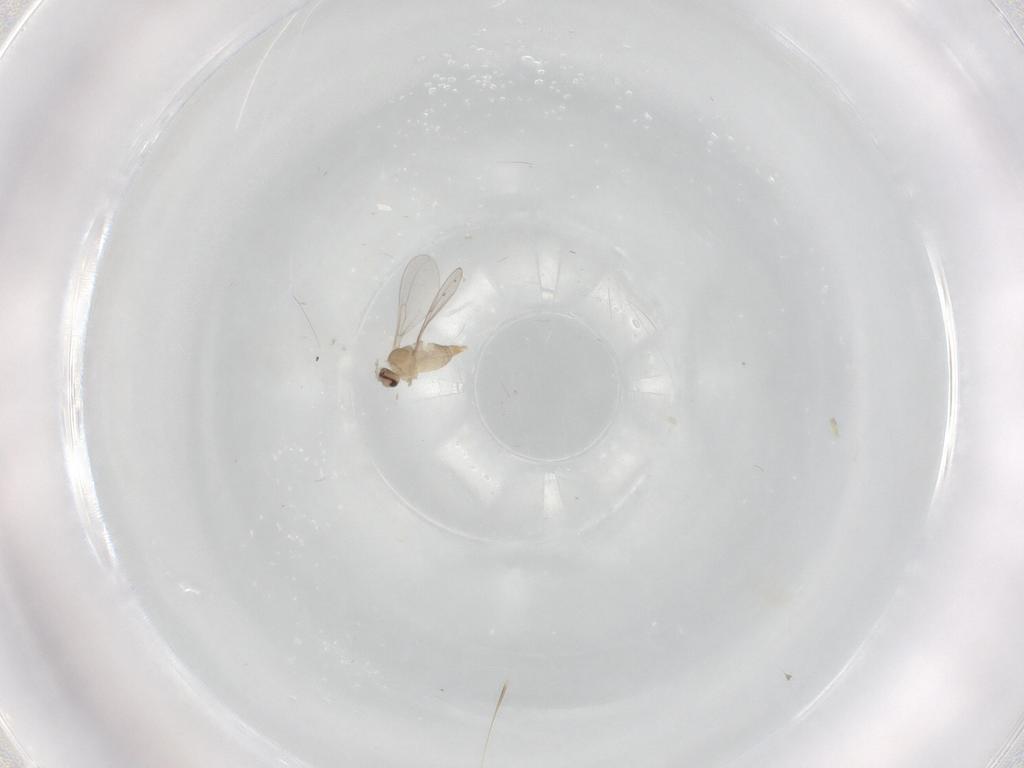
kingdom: Animalia
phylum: Arthropoda
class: Insecta
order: Diptera
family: Cecidomyiidae
